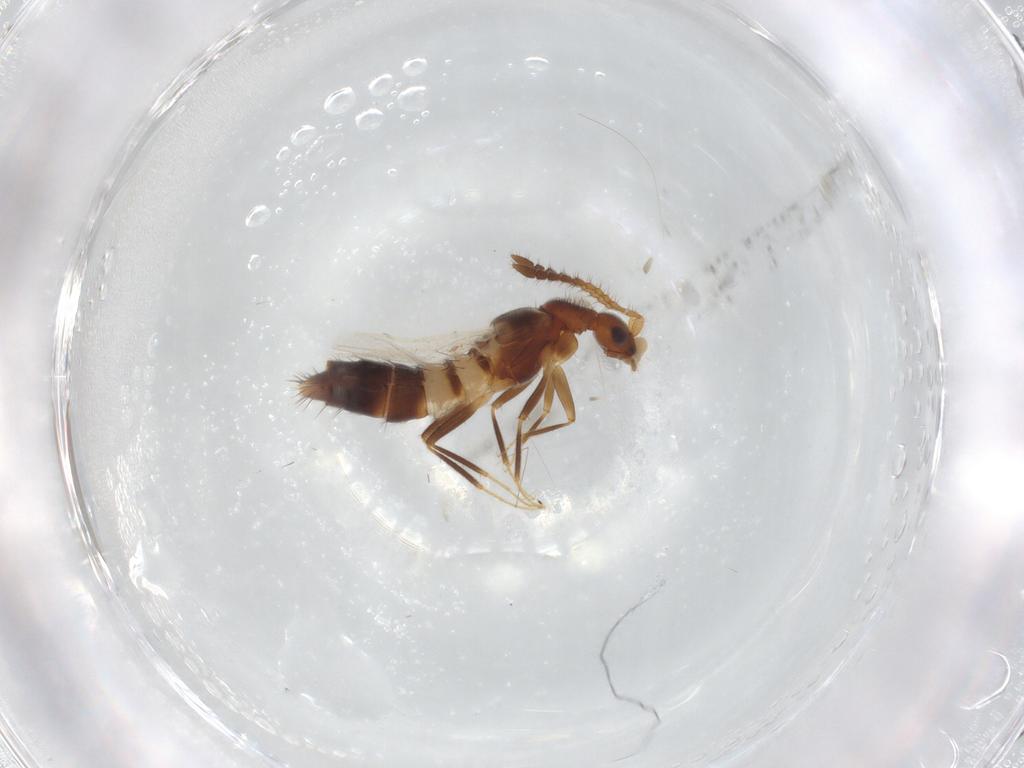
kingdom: Animalia
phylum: Arthropoda
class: Insecta
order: Coleoptera
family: Staphylinidae
